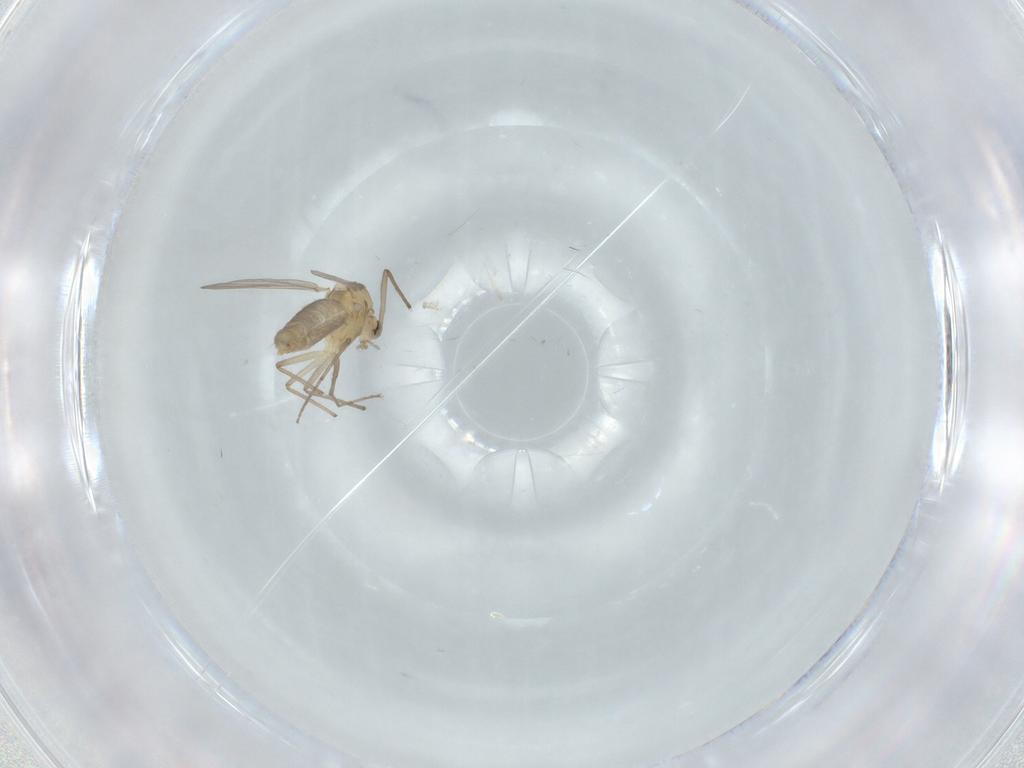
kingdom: Animalia
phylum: Arthropoda
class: Insecta
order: Diptera
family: Chironomidae
